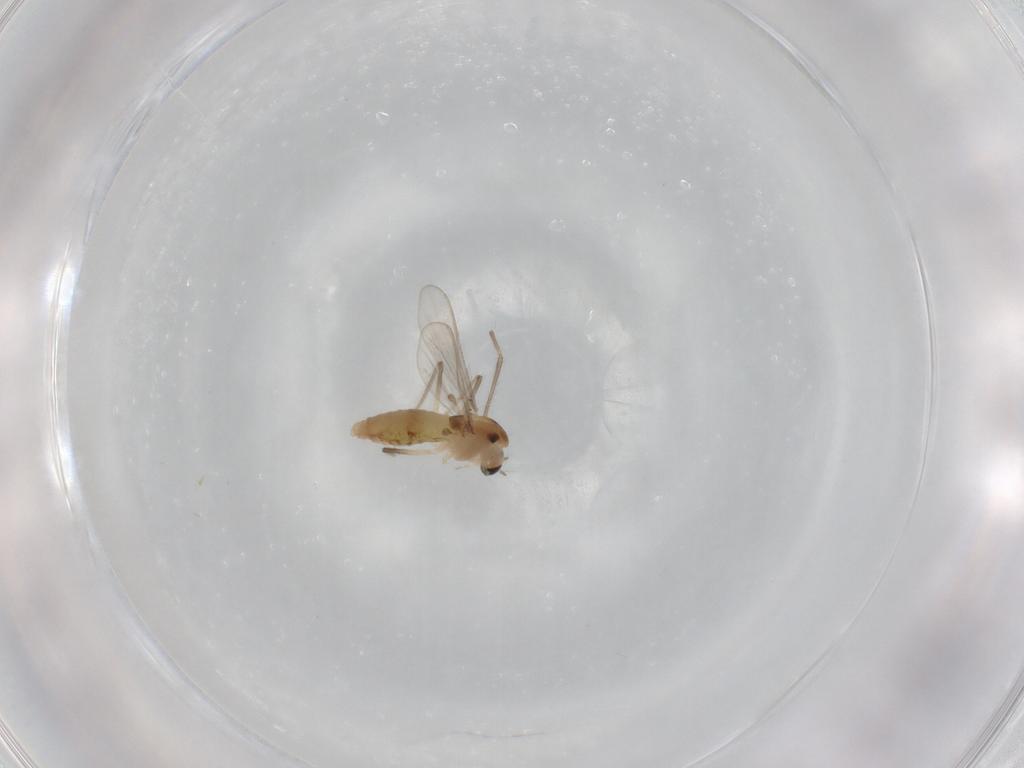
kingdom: Animalia
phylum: Arthropoda
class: Insecta
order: Diptera
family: Chironomidae
